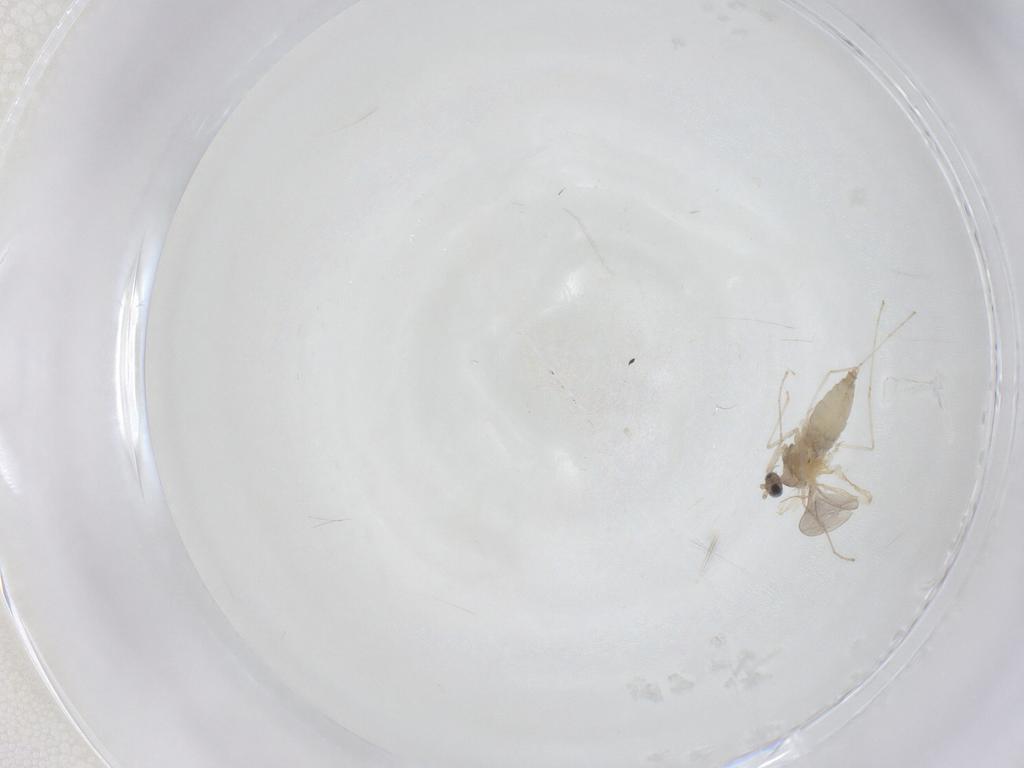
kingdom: Animalia
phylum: Arthropoda
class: Insecta
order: Diptera
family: Cecidomyiidae
